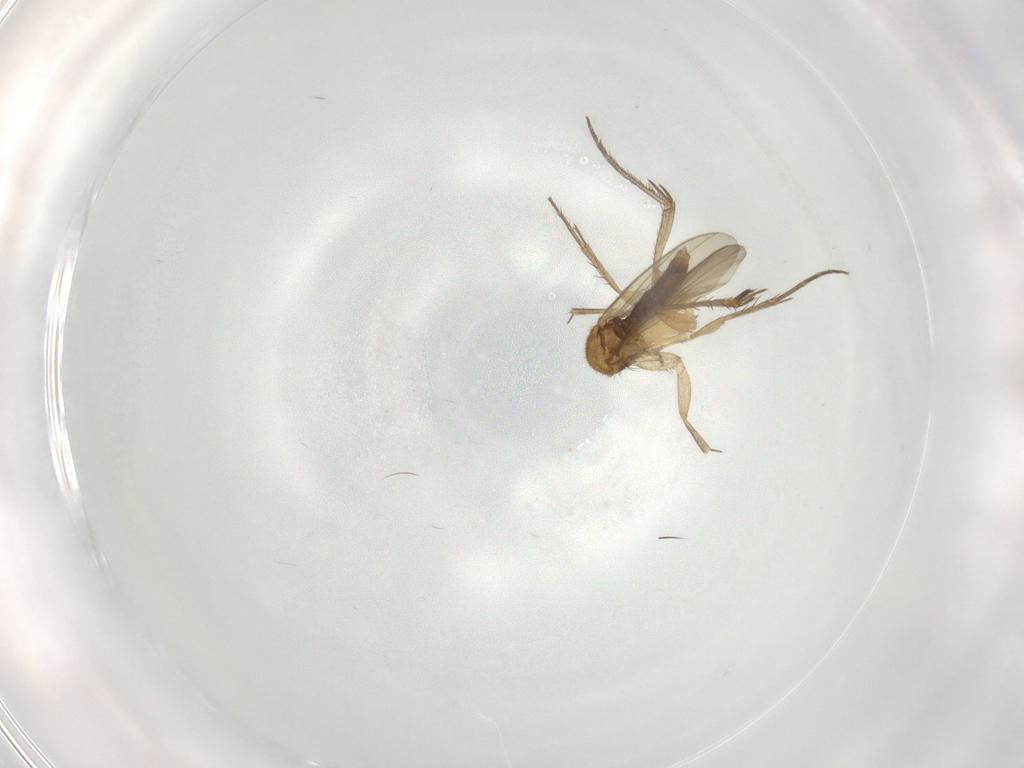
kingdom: Animalia
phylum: Arthropoda
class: Insecta
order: Diptera
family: Mycetophilidae
